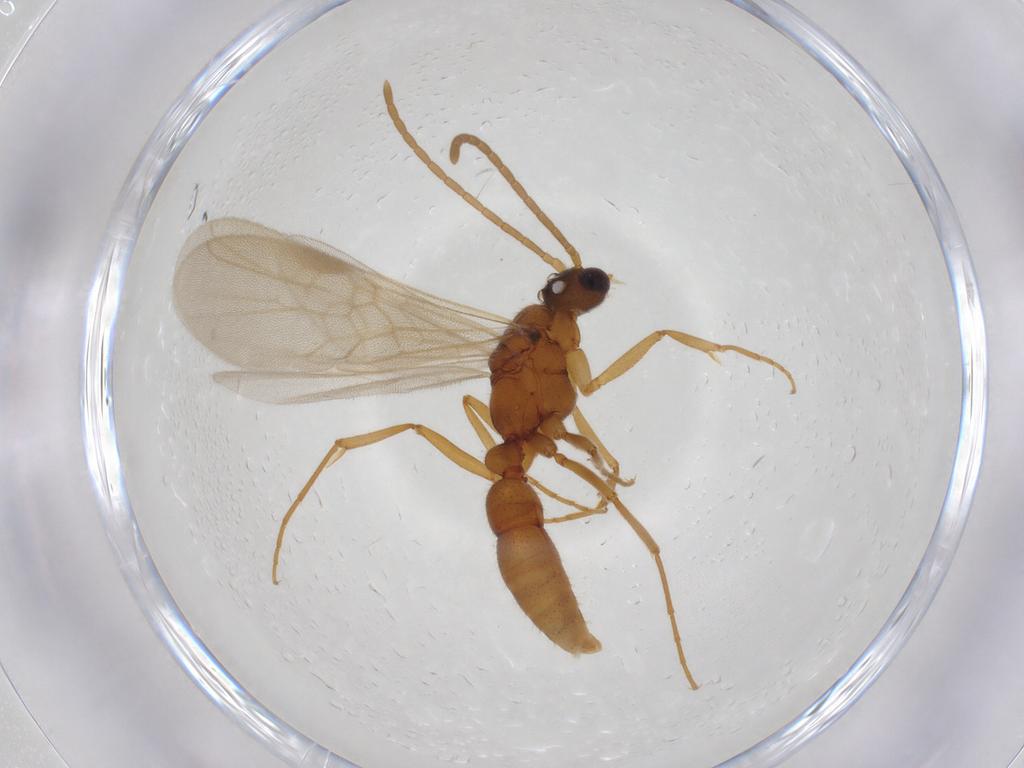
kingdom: Animalia
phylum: Arthropoda
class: Insecta
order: Hymenoptera
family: Formicidae
